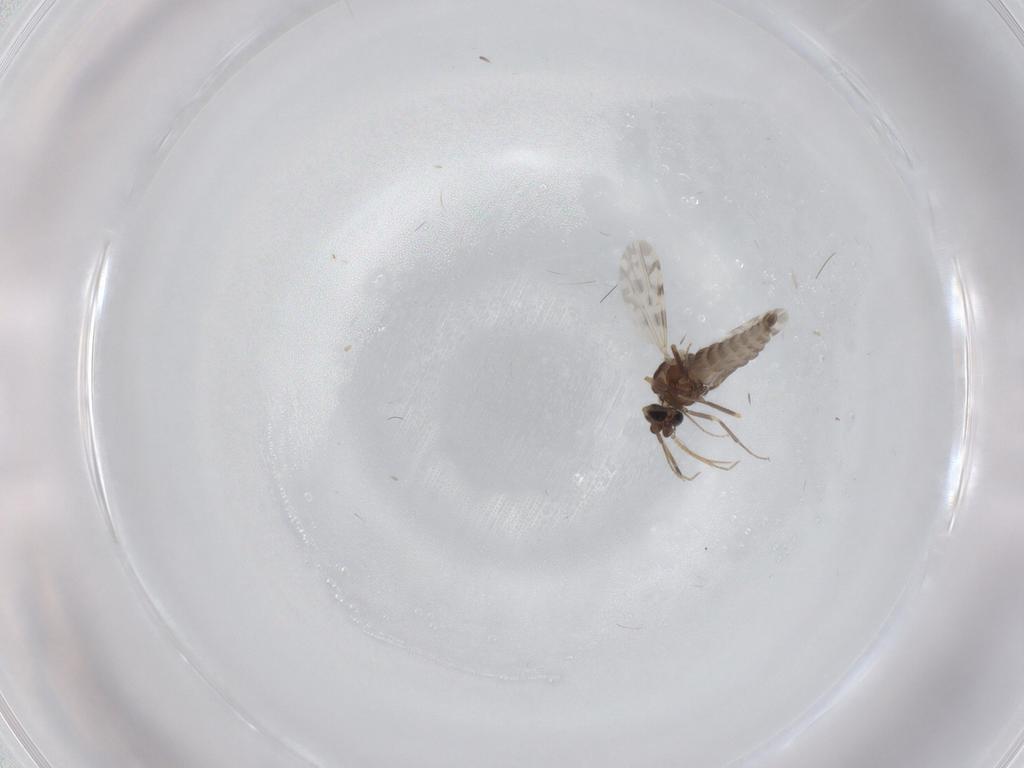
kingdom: Animalia
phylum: Arthropoda
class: Insecta
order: Diptera
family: Ceratopogonidae
